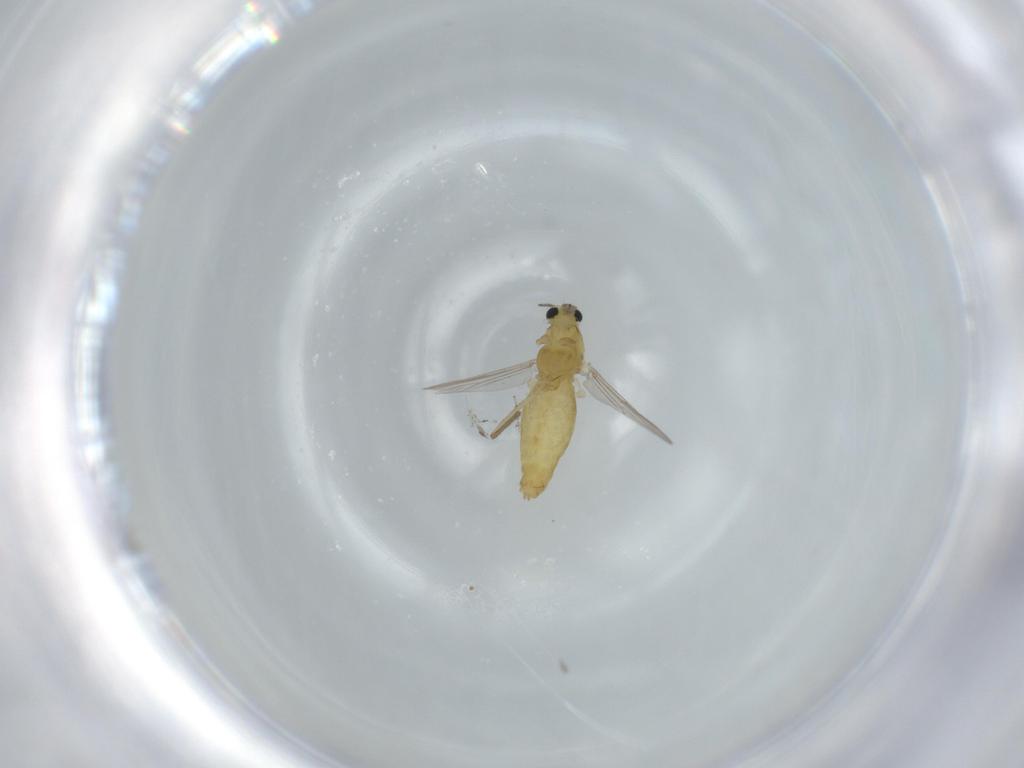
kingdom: Animalia
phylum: Arthropoda
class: Insecta
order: Diptera
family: Chironomidae
